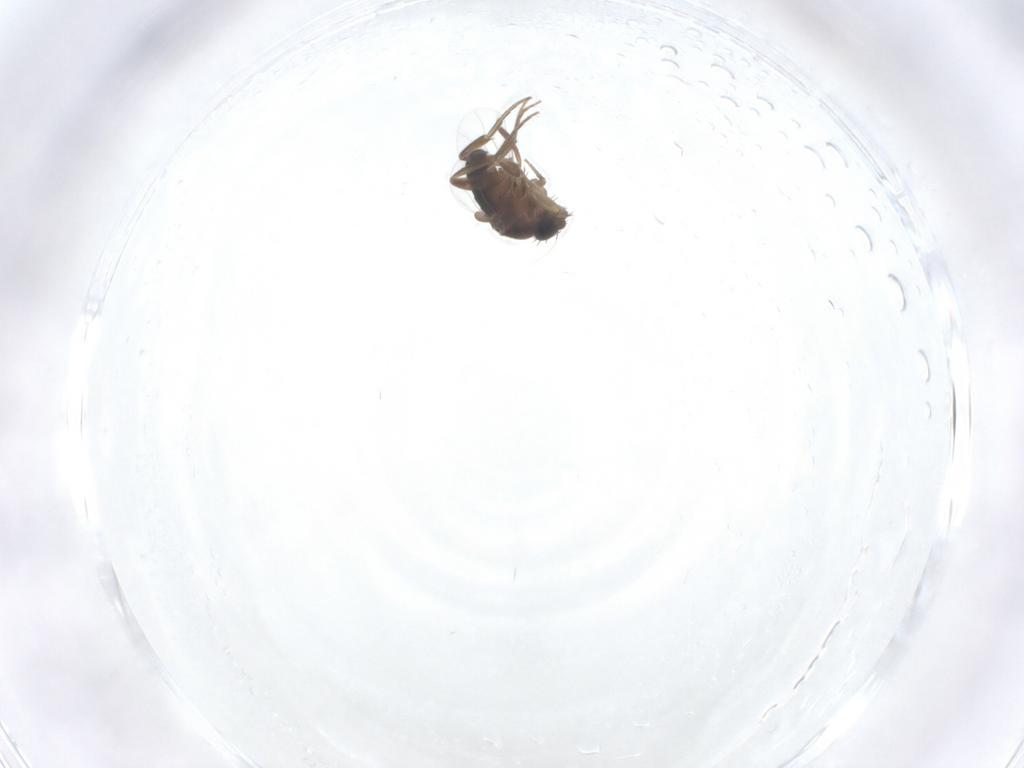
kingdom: Animalia
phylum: Arthropoda
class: Insecta
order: Diptera
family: Phoridae
